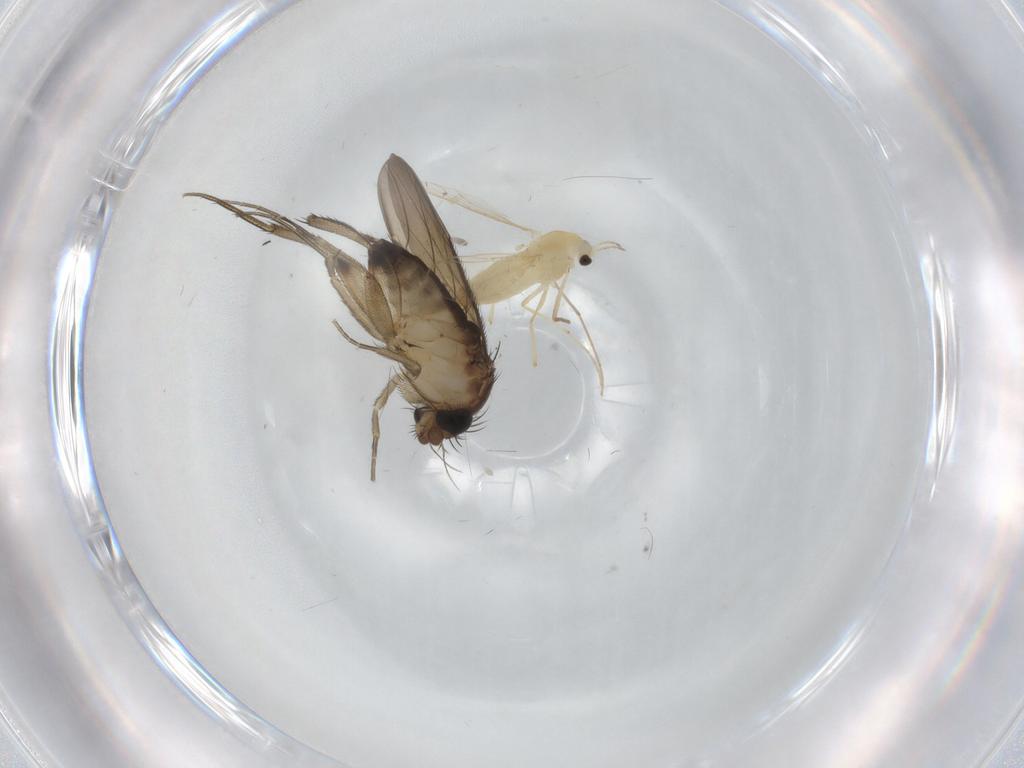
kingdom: Animalia
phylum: Arthropoda
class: Insecta
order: Diptera
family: Chironomidae
